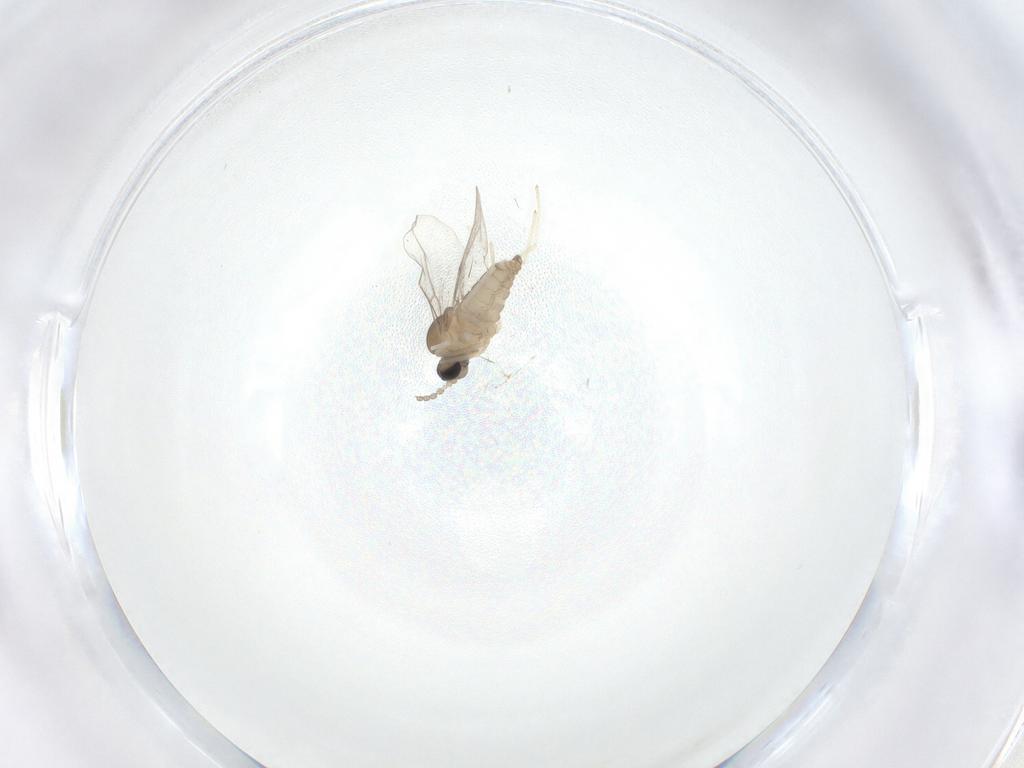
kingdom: Animalia
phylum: Arthropoda
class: Insecta
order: Diptera
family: Cecidomyiidae
